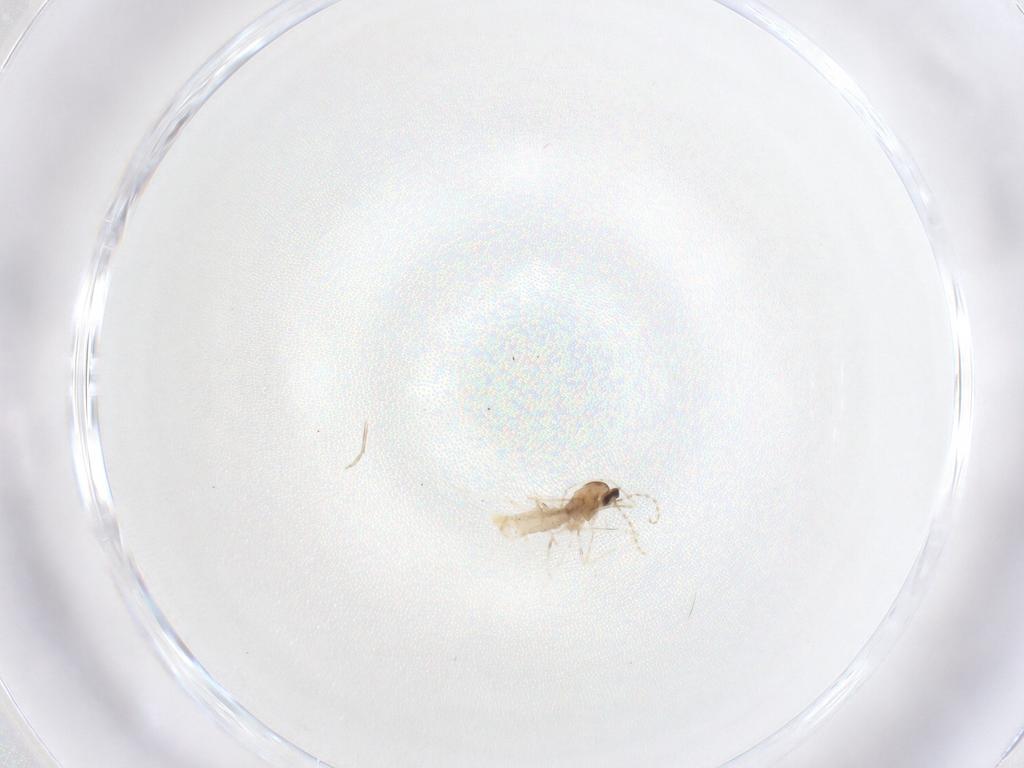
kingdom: Animalia
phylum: Arthropoda
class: Insecta
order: Diptera
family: Cecidomyiidae
